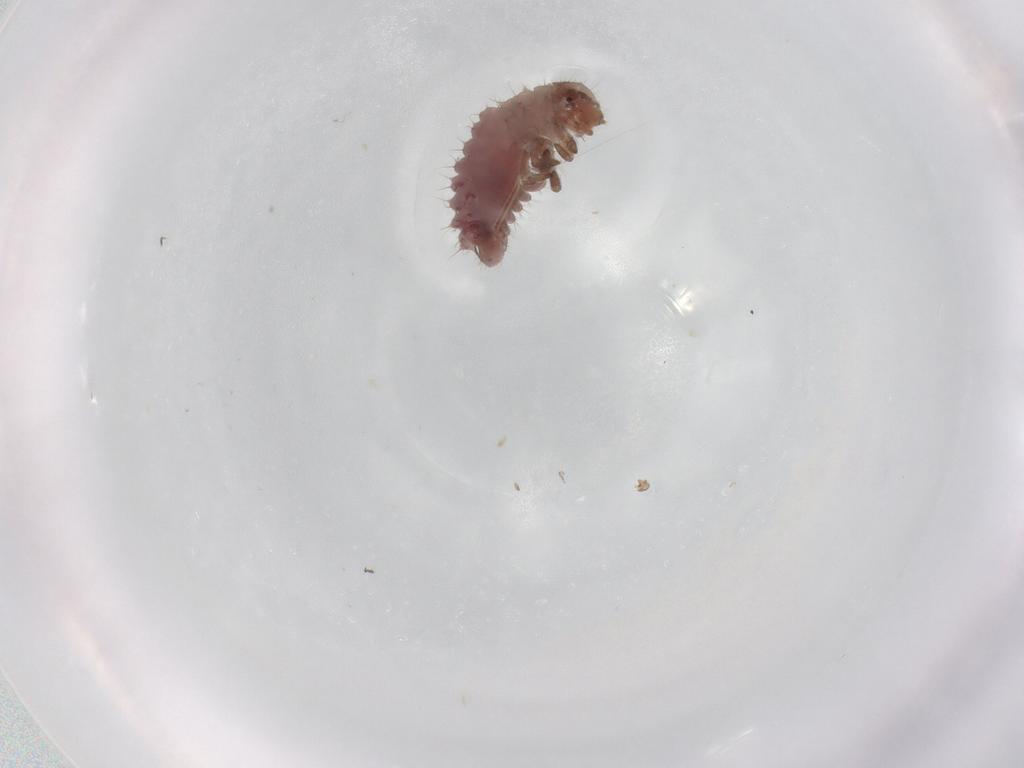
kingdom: Animalia
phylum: Arthropoda
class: Insecta
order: Coleoptera
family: Coccinellidae
